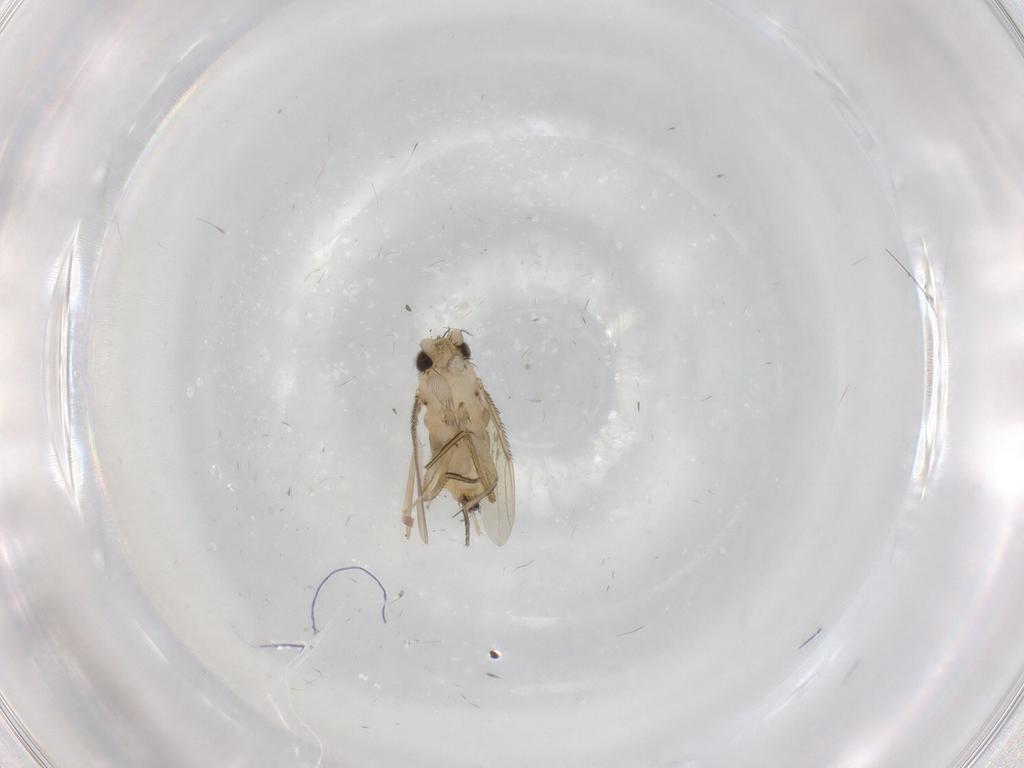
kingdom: Animalia
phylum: Arthropoda
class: Insecta
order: Diptera
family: Phoridae
